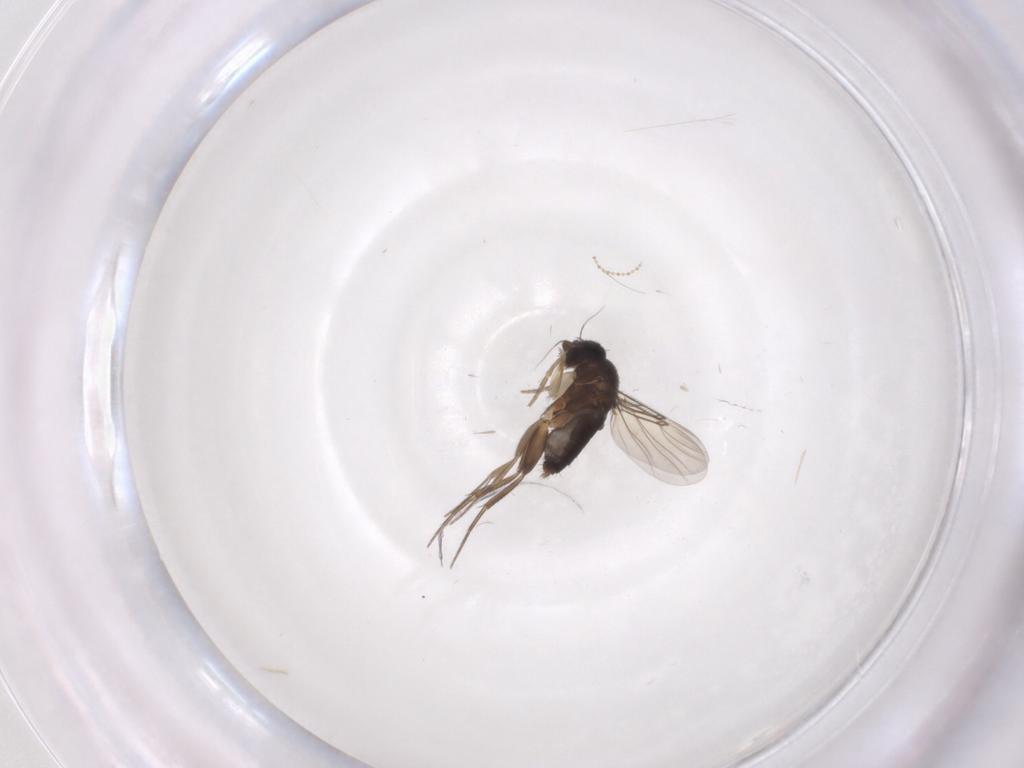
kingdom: Animalia
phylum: Arthropoda
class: Insecta
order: Diptera
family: Phoridae
